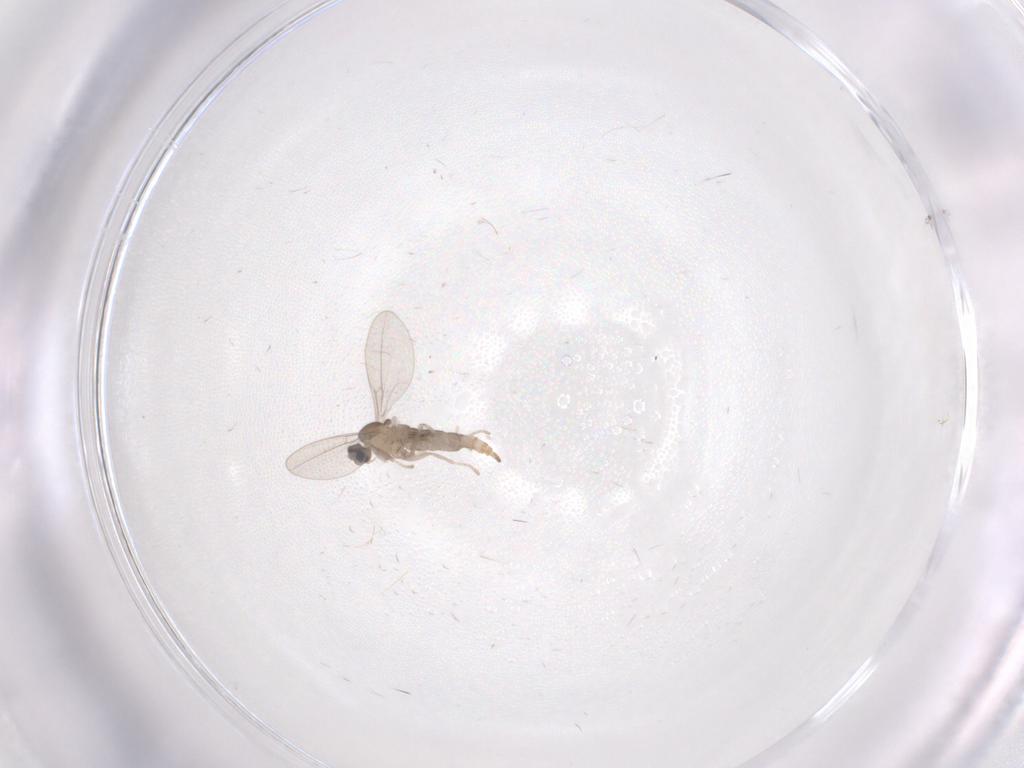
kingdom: Animalia
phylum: Arthropoda
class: Insecta
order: Diptera
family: Cecidomyiidae
